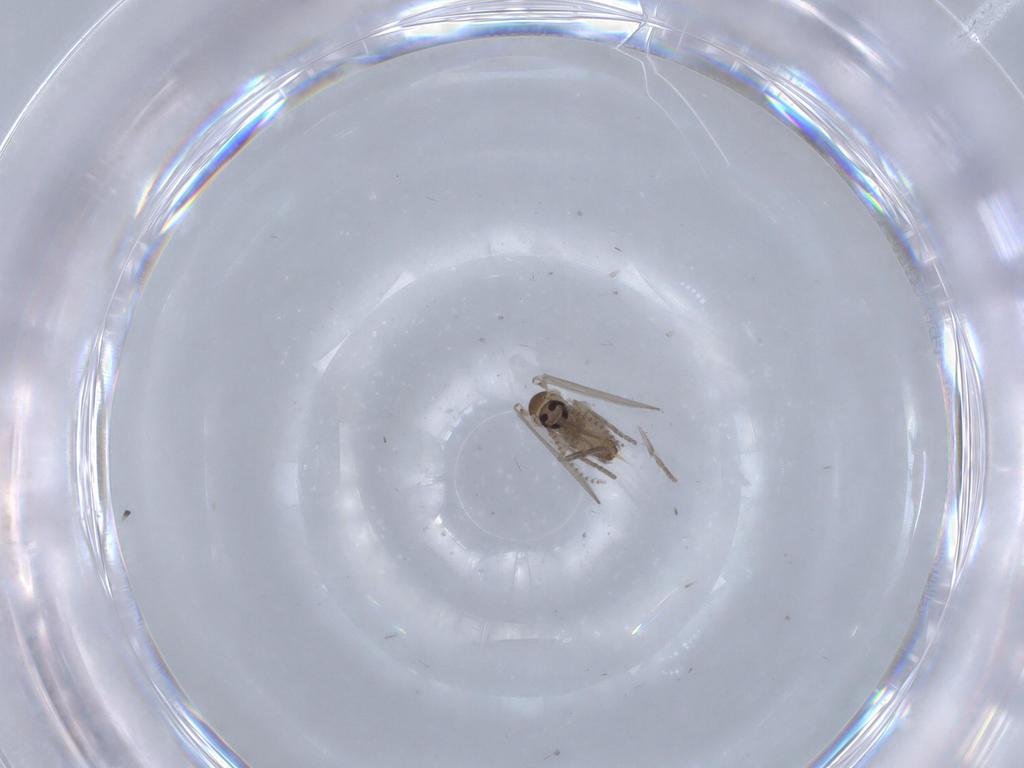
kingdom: Animalia
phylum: Arthropoda
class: Insecta
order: Diptera
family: Psychodidae
